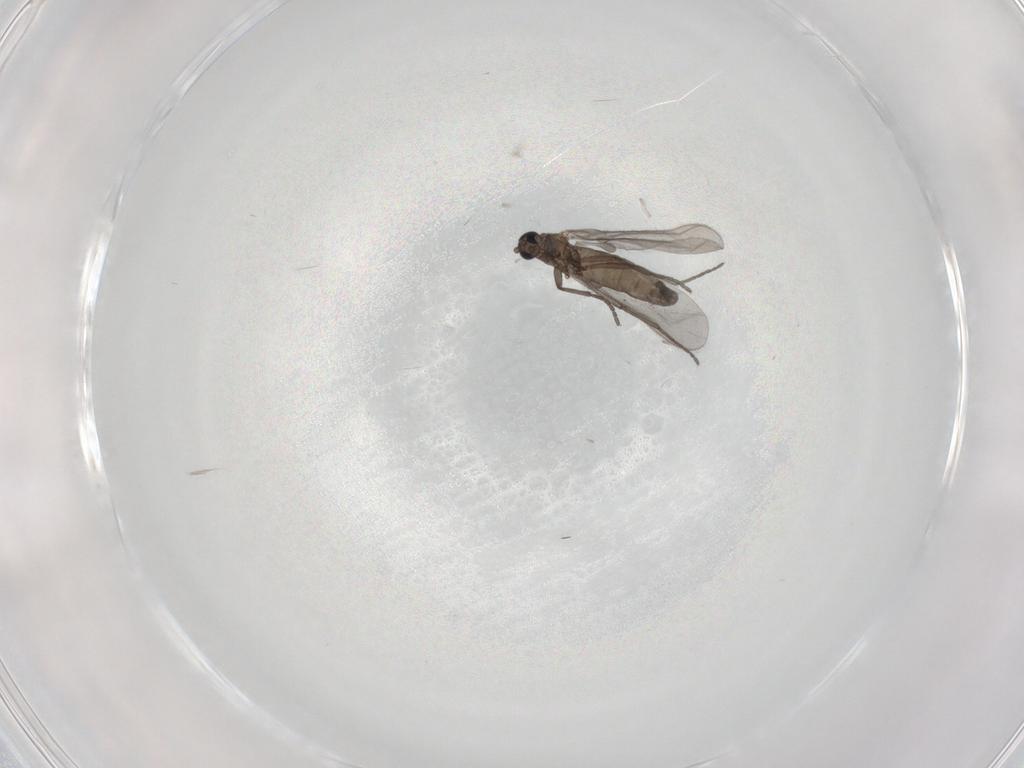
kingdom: Animalia
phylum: Arthropoda
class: Insecta
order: Diptera
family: Sciaridae
